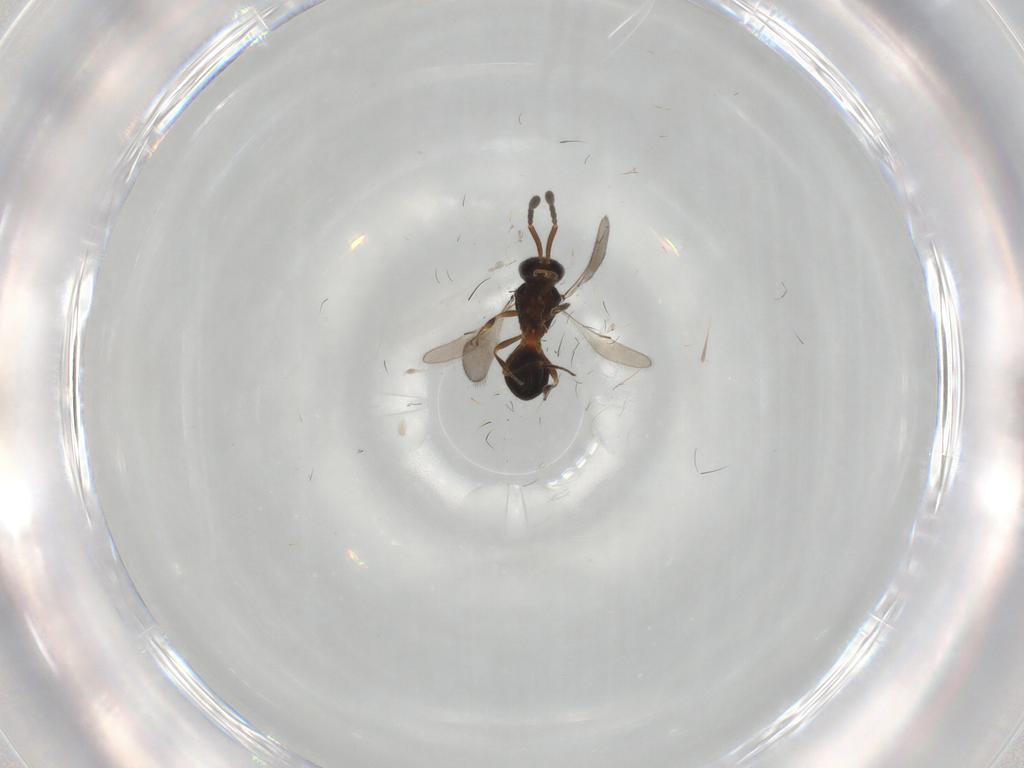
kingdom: Animalia
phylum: Arthropoda
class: Insecta
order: Hymenoptera
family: Scelionidae
